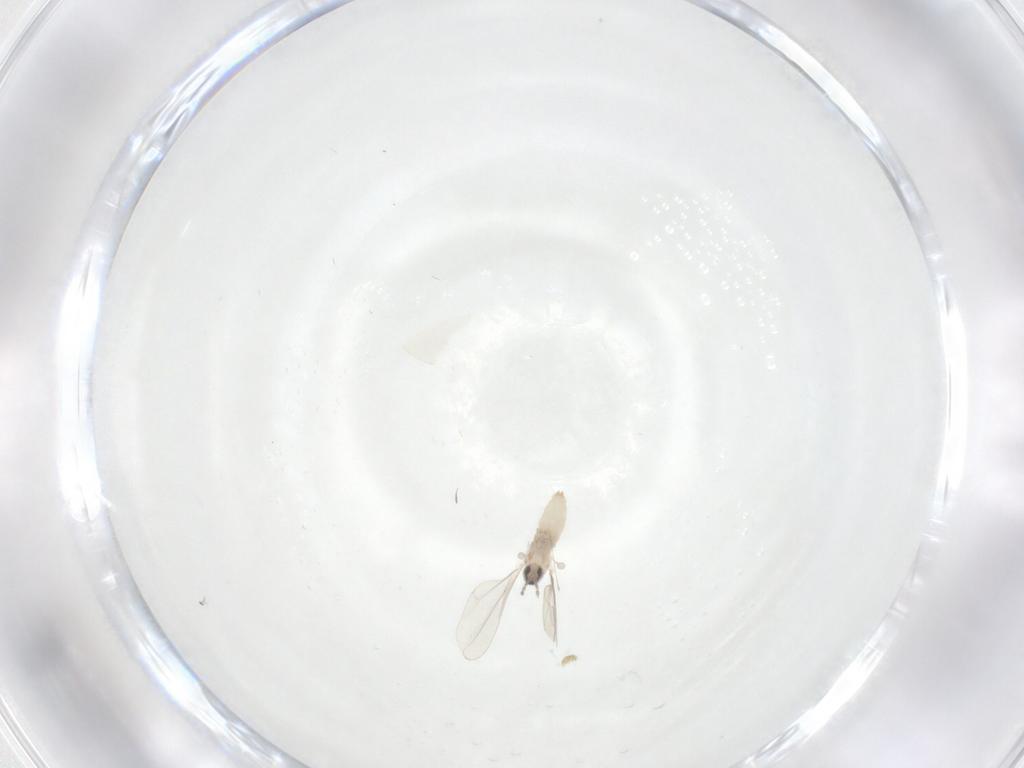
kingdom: Animalia
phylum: Arthropoda
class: Insecta
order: Diptera
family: Cecidomyiidae
